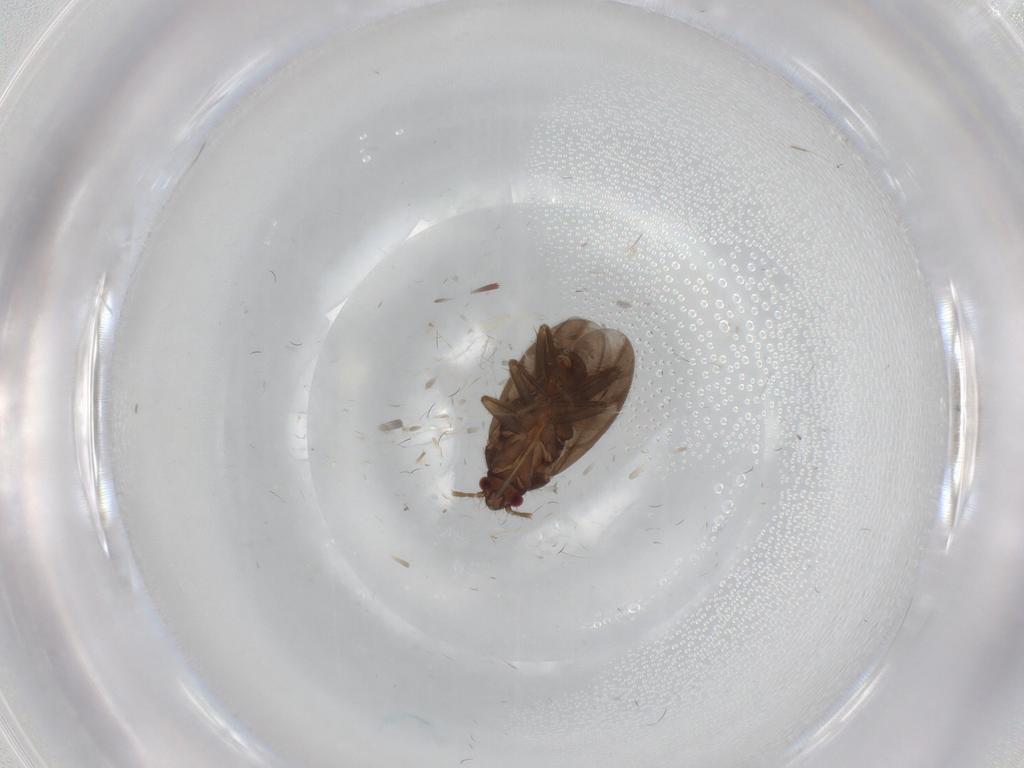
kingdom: Animalia
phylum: Arthropoda
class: Insecta
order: Hemiptera
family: Ceratocombidae
